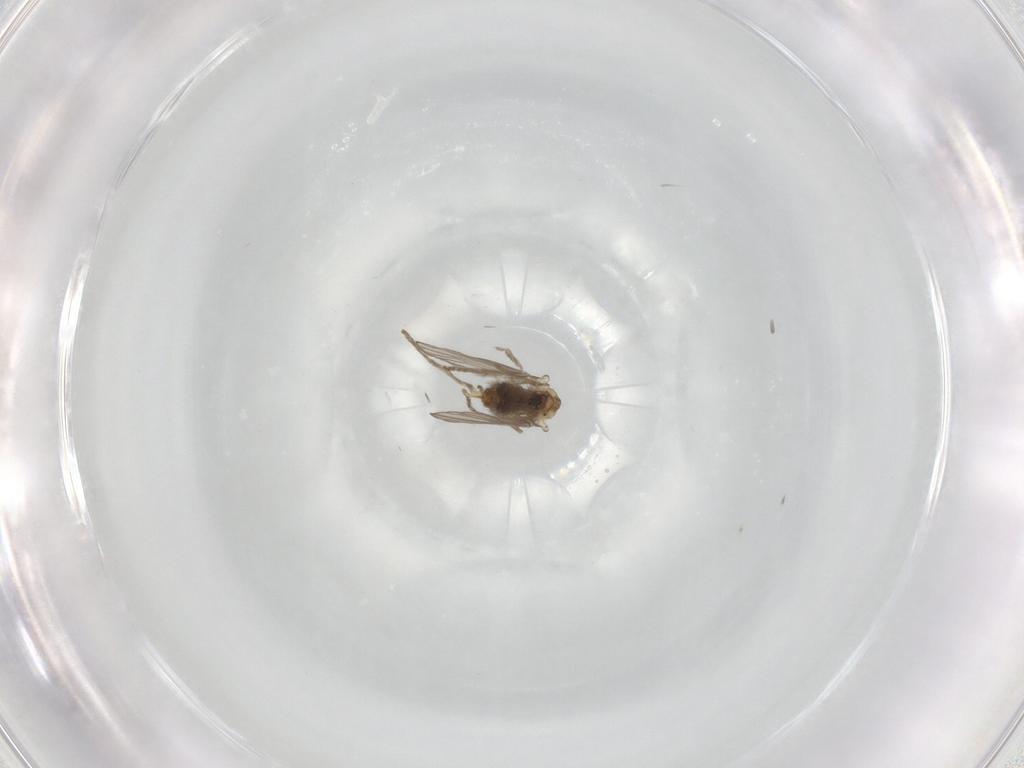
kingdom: Animalia
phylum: Arthropoda
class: Insecta
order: Diptera
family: Psychodidae
